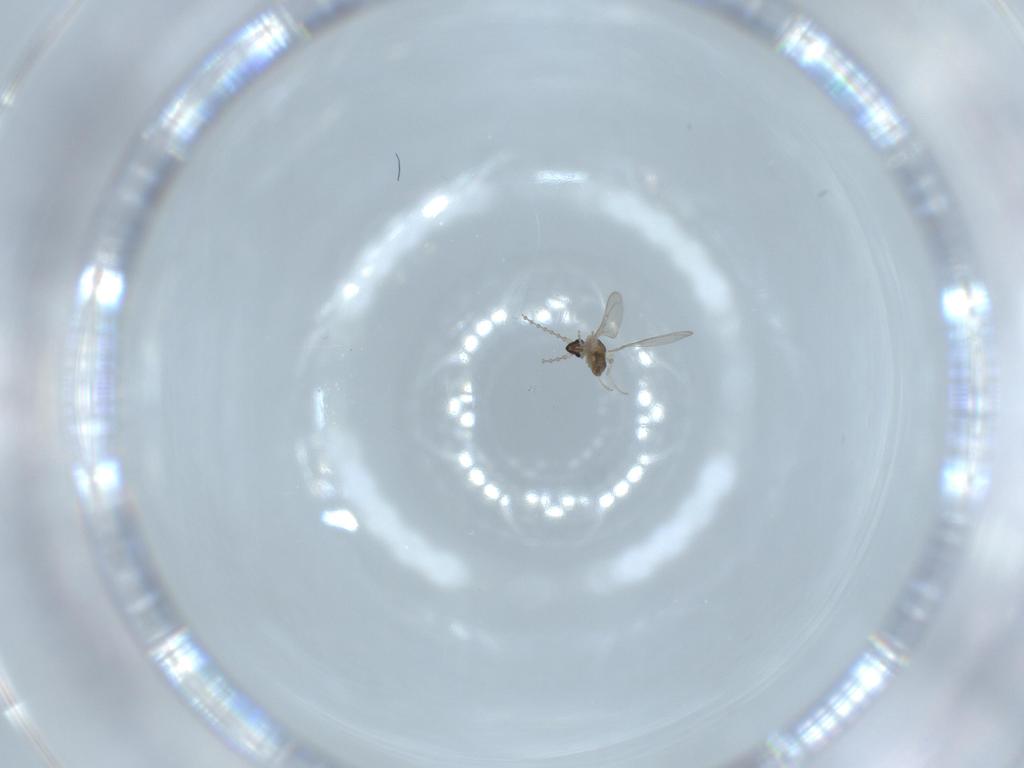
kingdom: Animalia
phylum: Arthropoda
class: Insecta
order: Diptera
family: Cecidomyiidae
